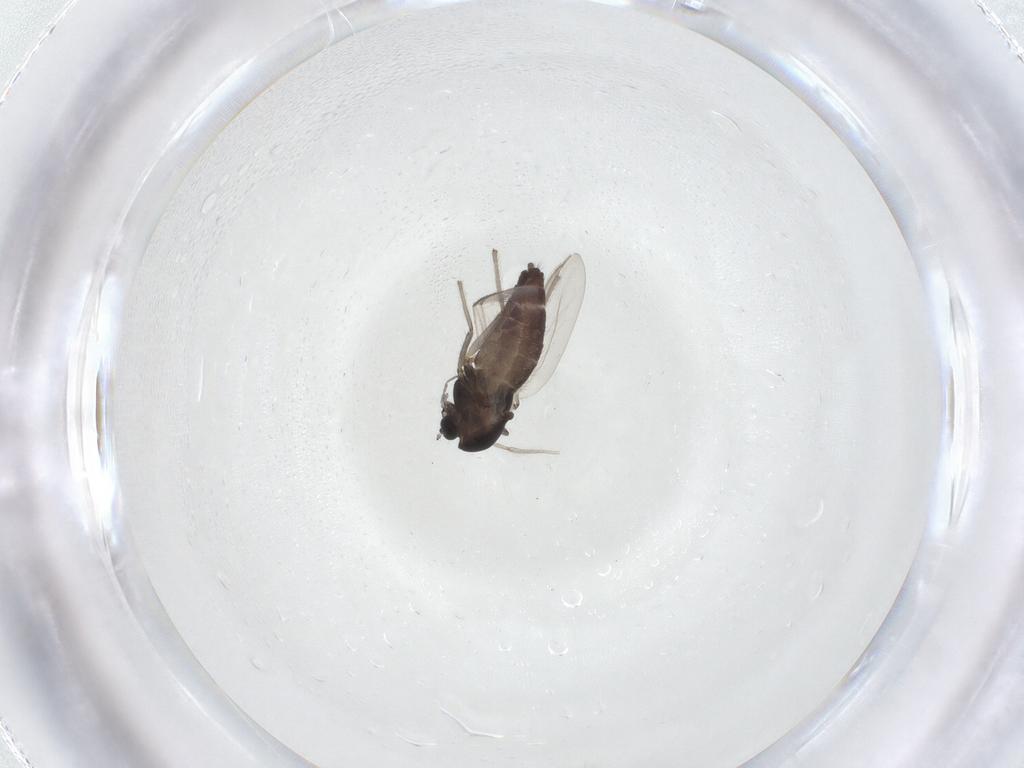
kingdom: Animalia
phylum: Arthropoda
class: Insecta
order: Diptera
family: Chironomidae
